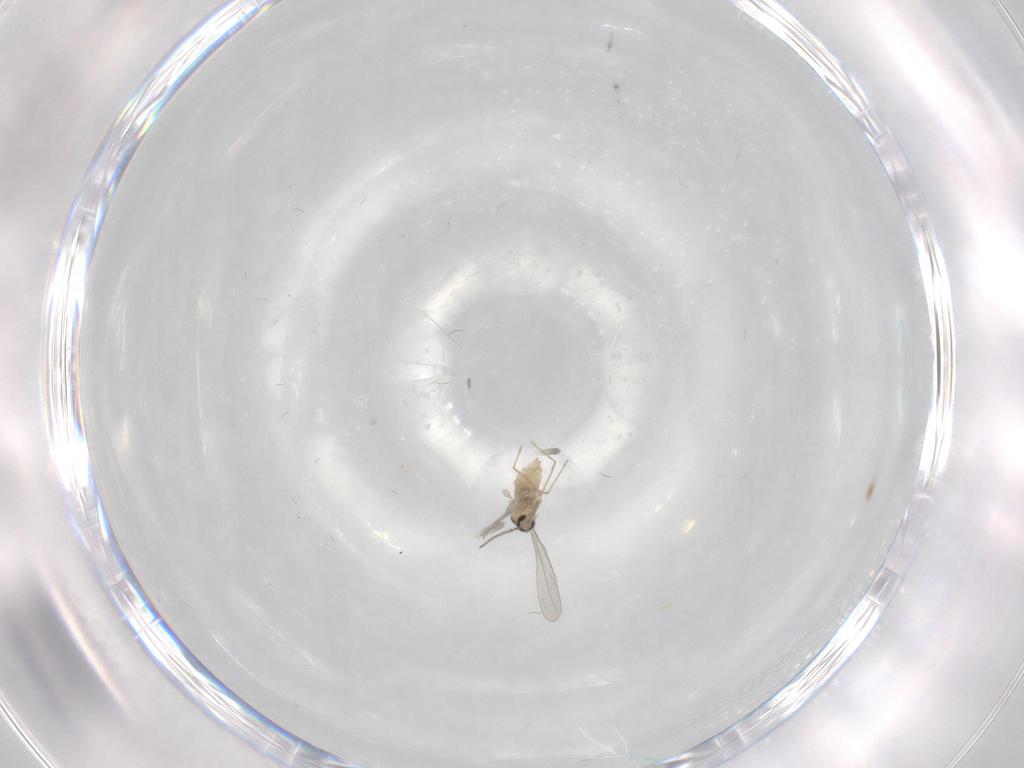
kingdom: Animalia
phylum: Arthropoda
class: Insecta
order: Diptera
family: Cecidomyiidae
